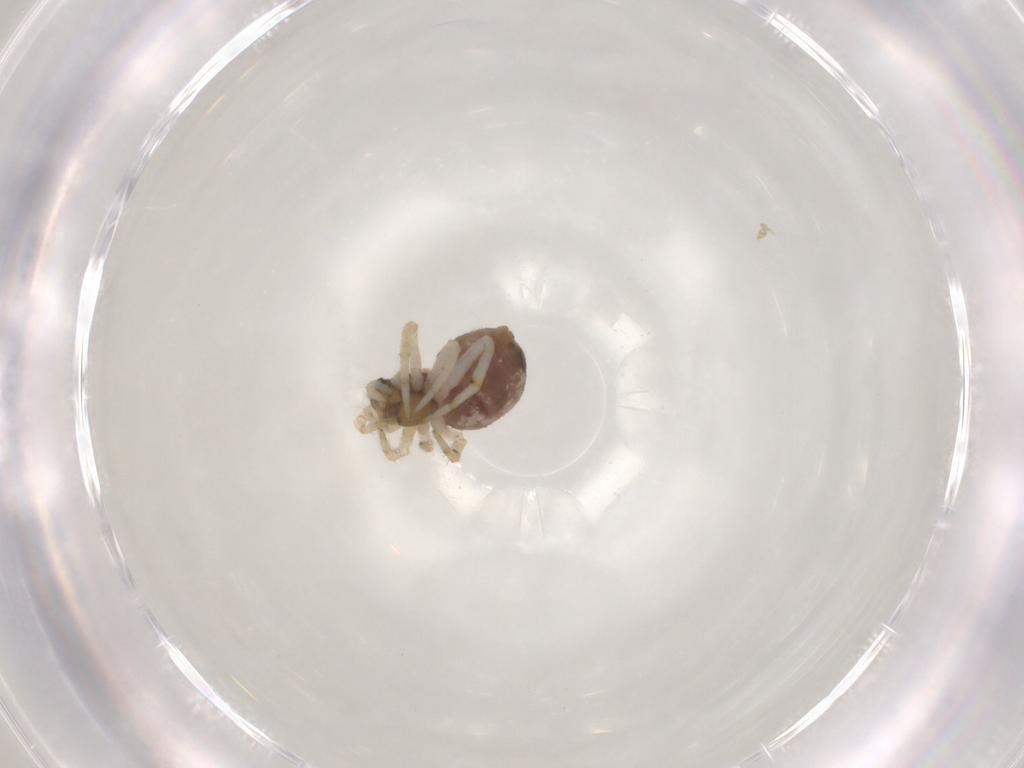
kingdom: Animalia
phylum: Arthropoda
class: Arachnida
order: Araneae
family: Theridiidae
